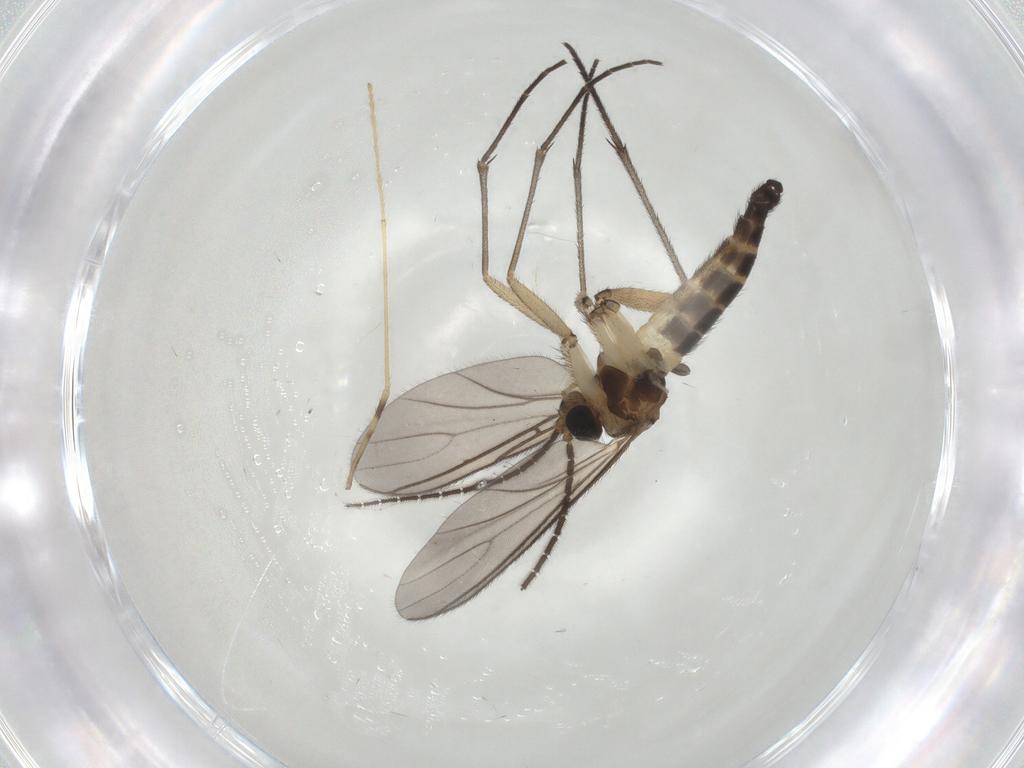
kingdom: Animalia
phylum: Arthropoda
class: Insecta
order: Diptera
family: Sciaridae
